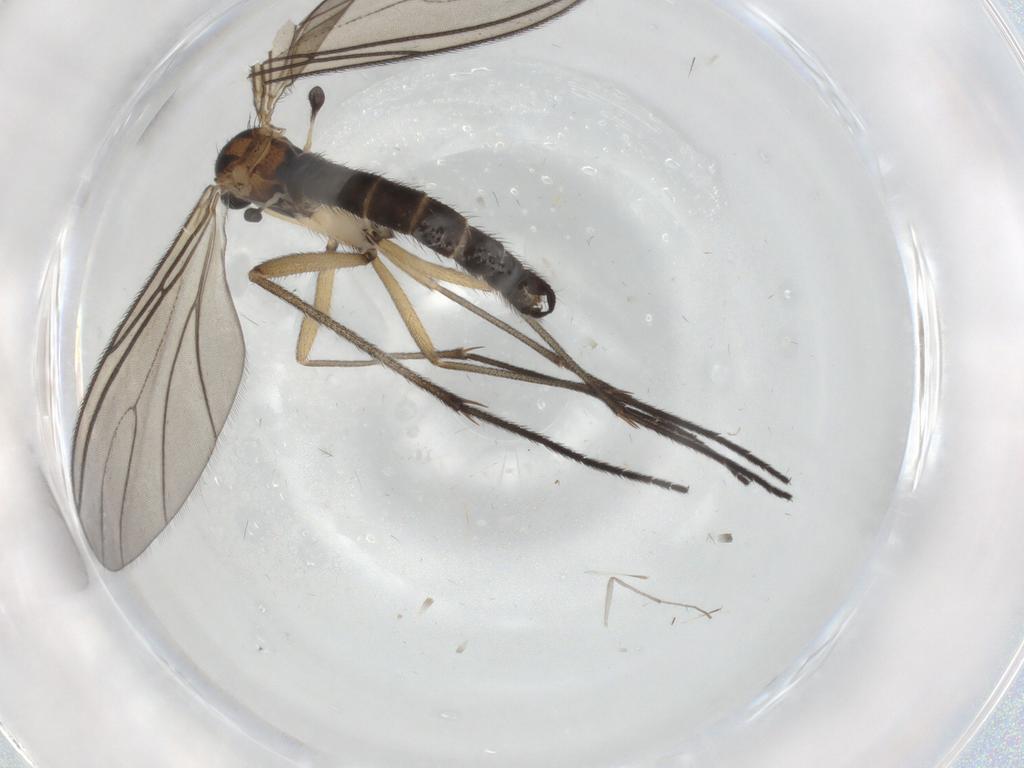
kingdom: Animalia
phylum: Arthropoda
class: Insecta
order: Diptera
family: Sciaridae
